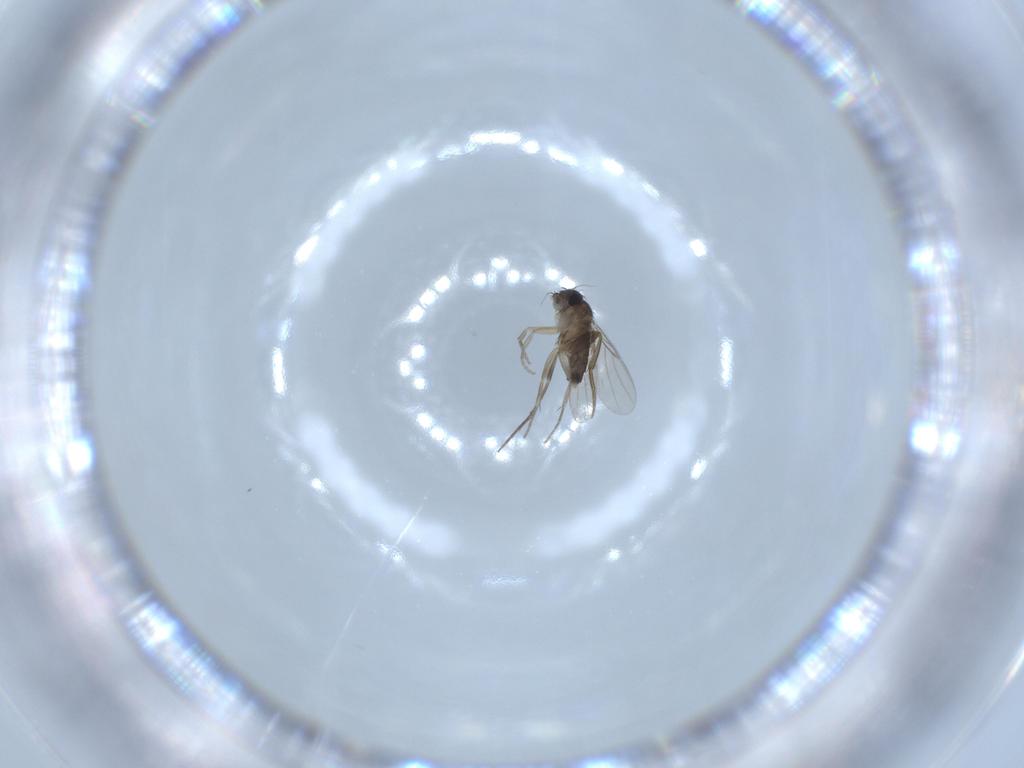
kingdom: Animalia
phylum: Arthropoda
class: Insecta
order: Diptera
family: Phoridae
